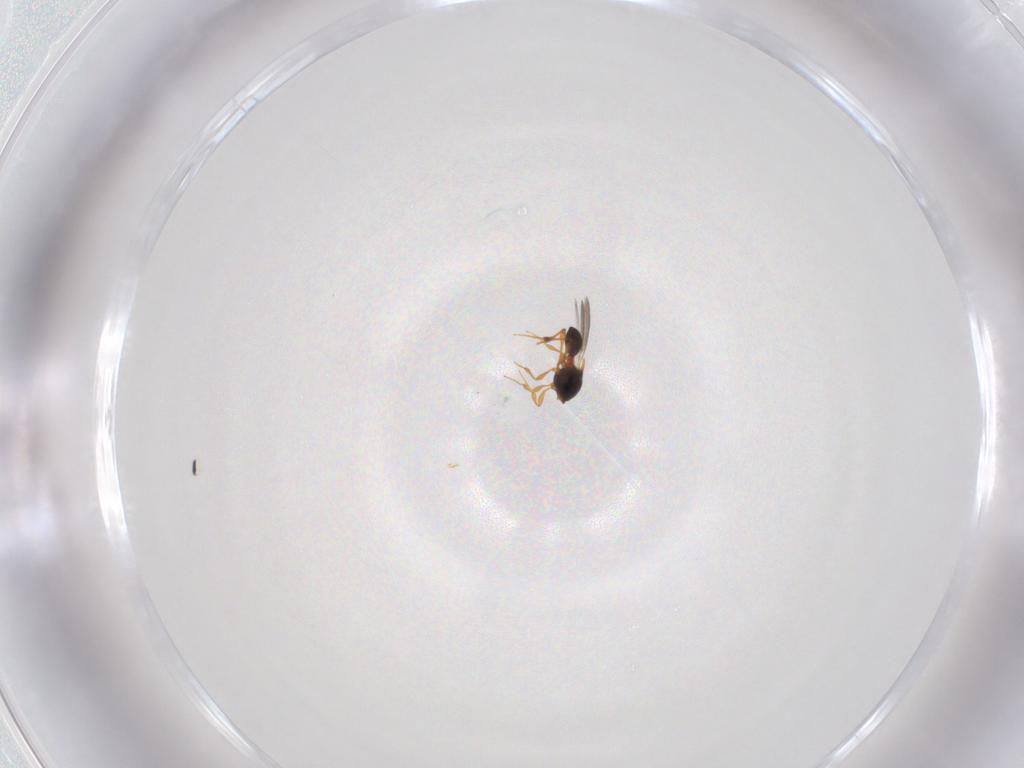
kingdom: Animalia
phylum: Arthropoda
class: Insecta
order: Hymenoptera
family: Platygastridae
